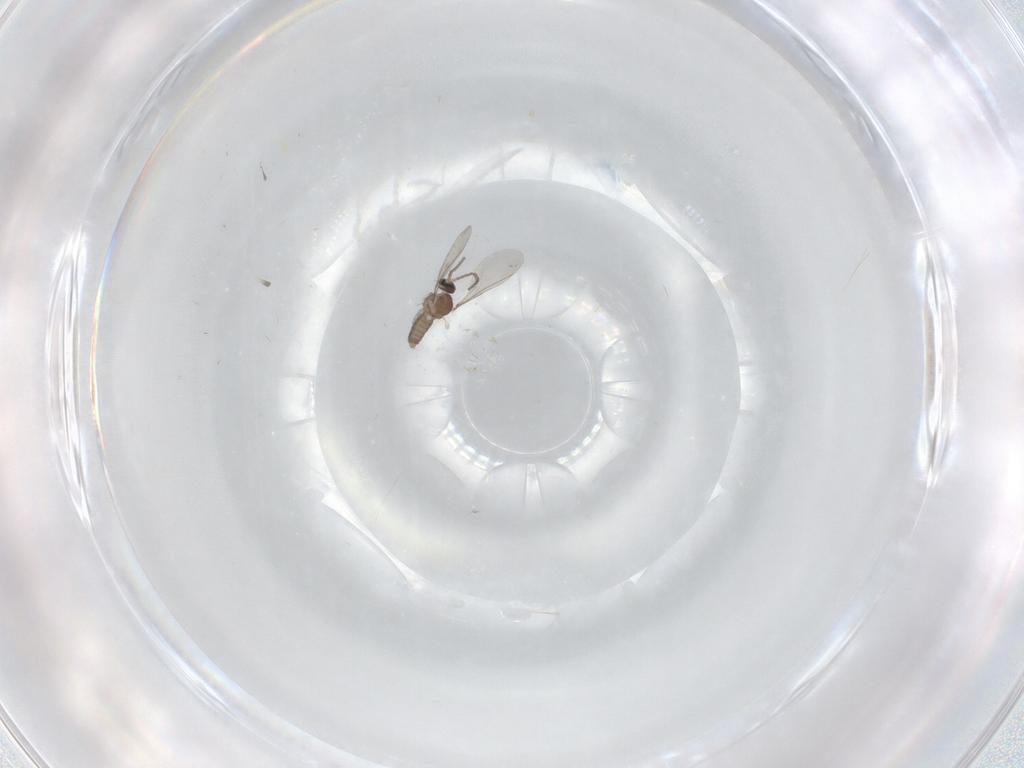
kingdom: Animalia
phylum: Arthropoda
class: Insecta
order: Diptera
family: Cecidomyiidae
